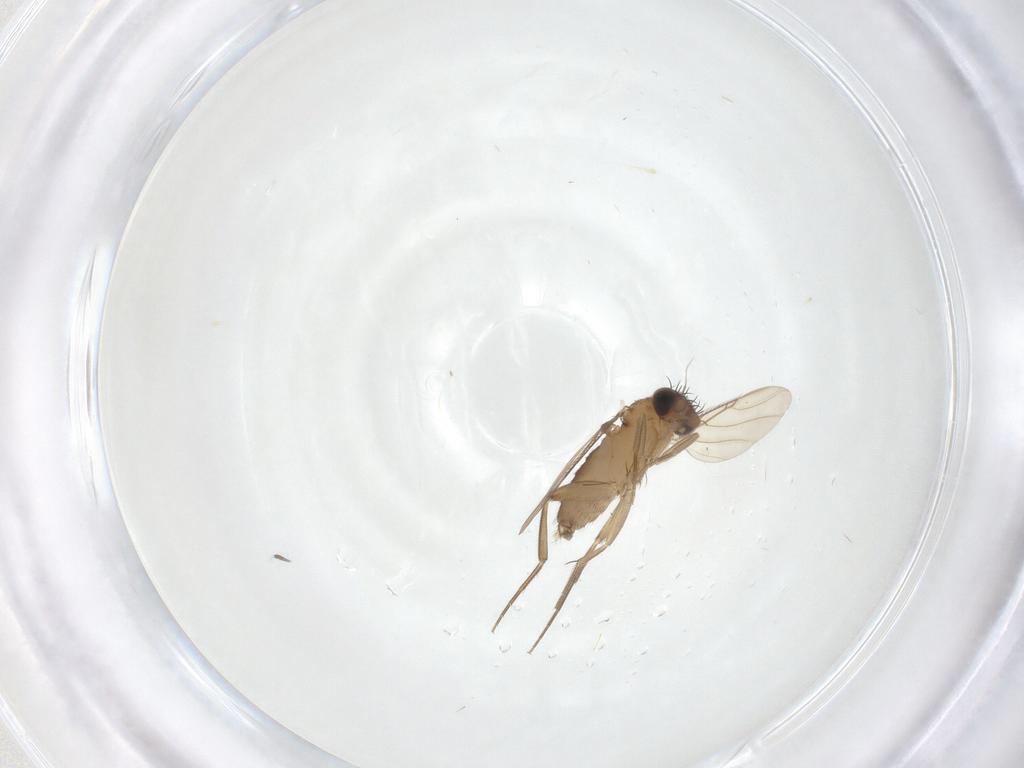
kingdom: Animalia
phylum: Arthropoda
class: Insecta
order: Diptera
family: Phoridae
